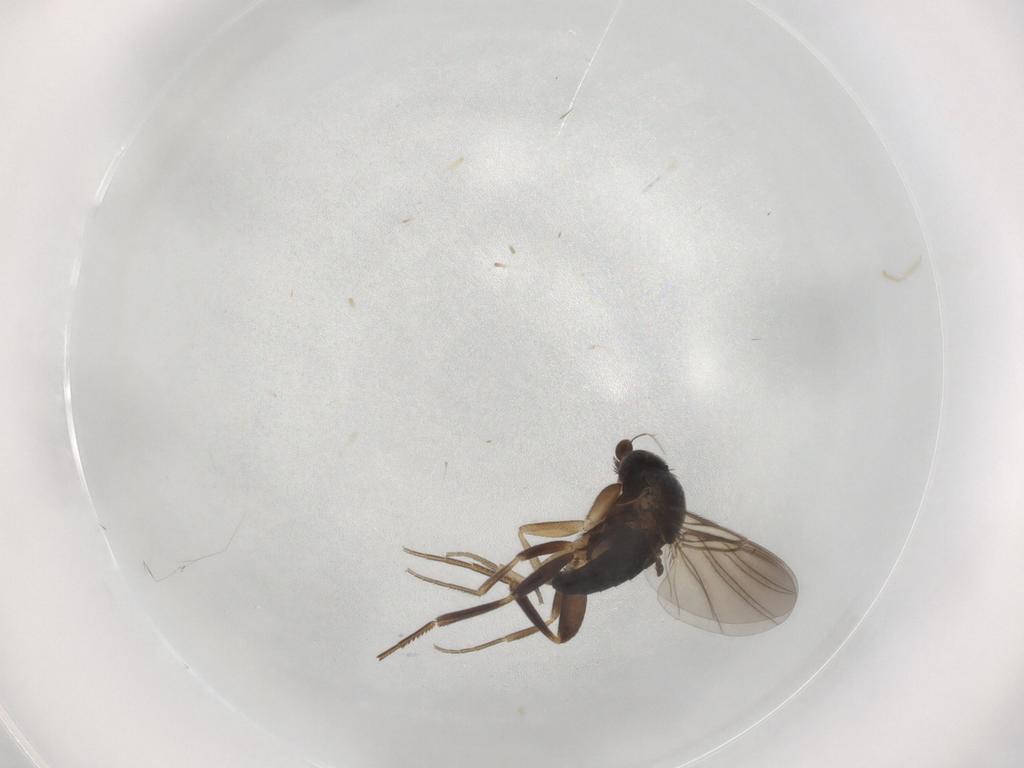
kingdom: Animalia
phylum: Arthropoda
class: Insecta
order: Diptera
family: Phoridae
